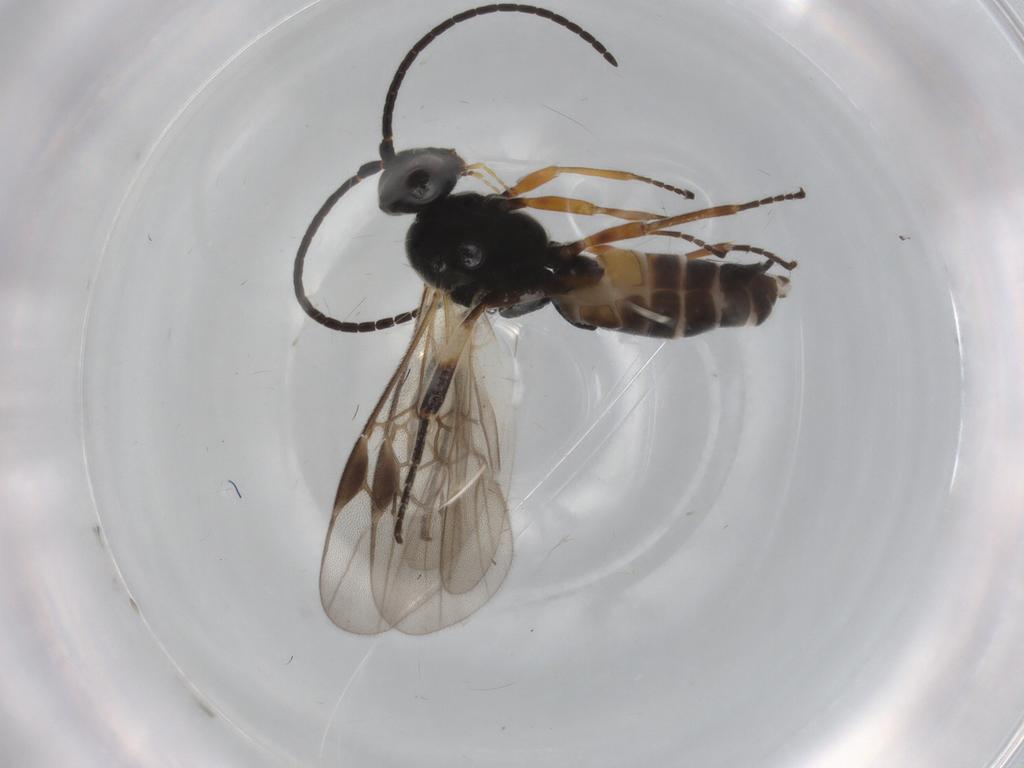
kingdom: Animalia
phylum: Arthropoda
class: Insecta
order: Hymenoptera
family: Braconidae
